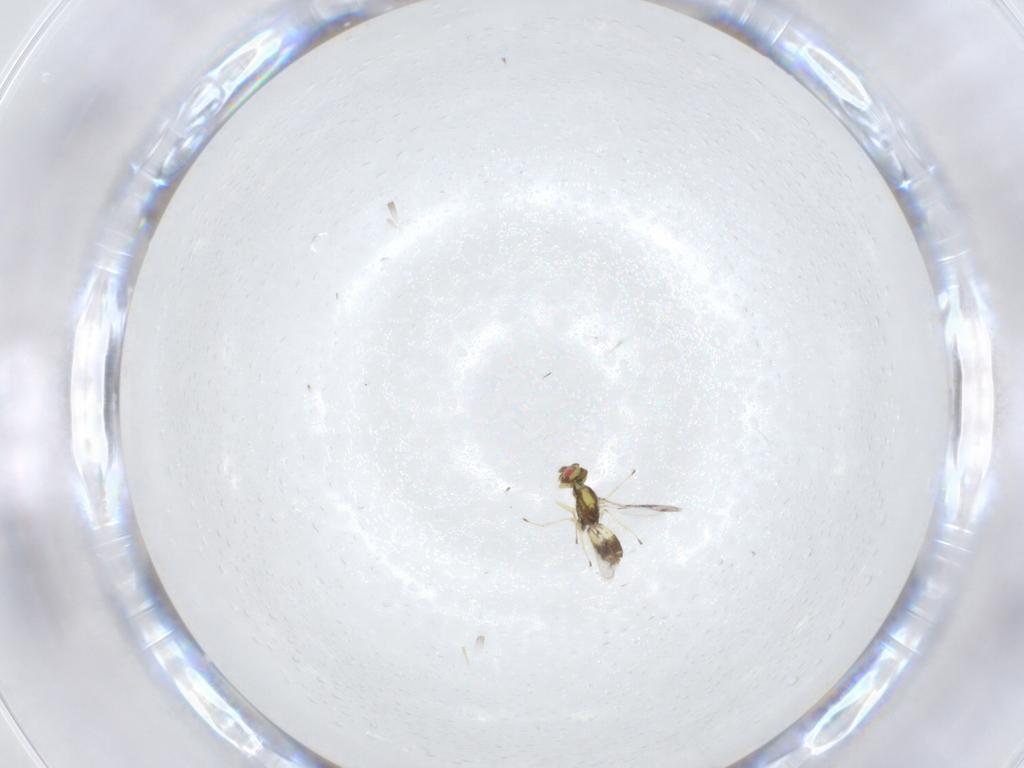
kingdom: Animalia
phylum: Arthropoda
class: Insecta
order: Hymenoptera
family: Eulophidae
